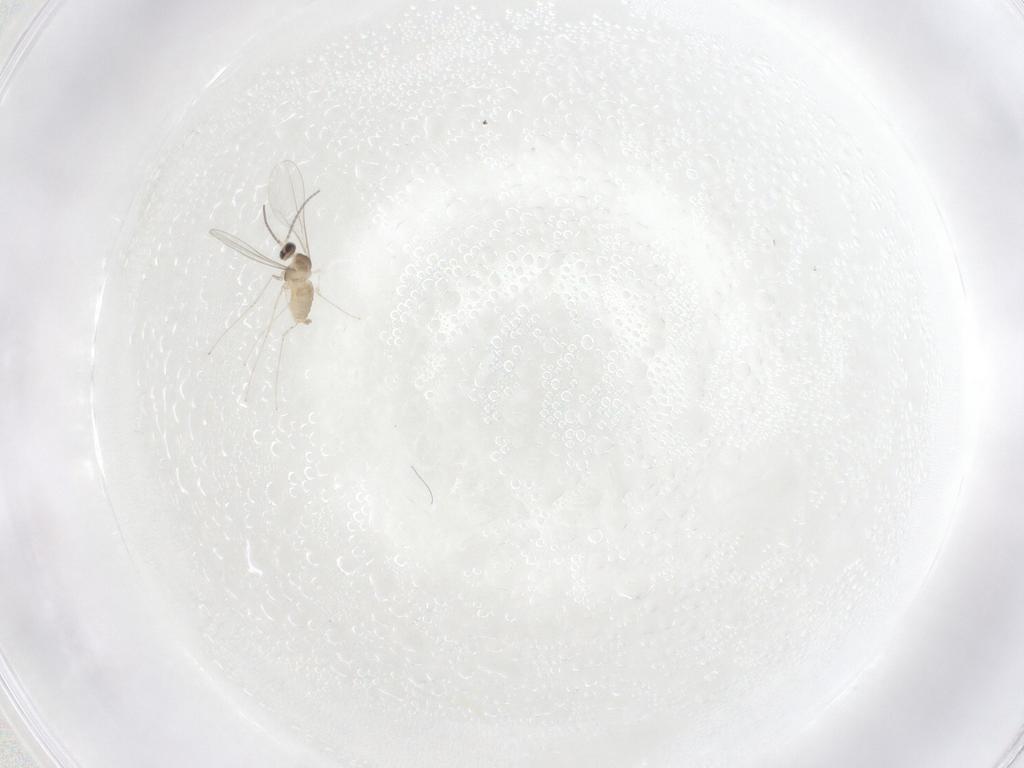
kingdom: Animalia
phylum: Arthropoda
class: Insecta
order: Diptera
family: Cecidomyiidae
